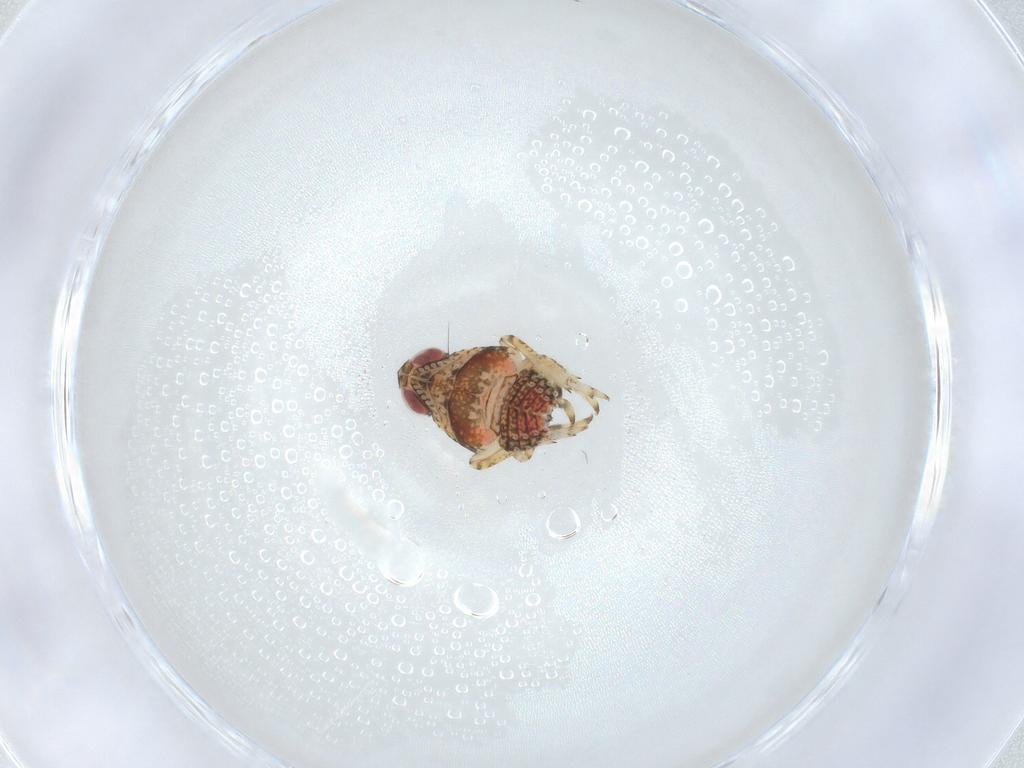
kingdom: Animalia
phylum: Arthropoda
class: Insecta
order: Hemiptera
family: Issidae
